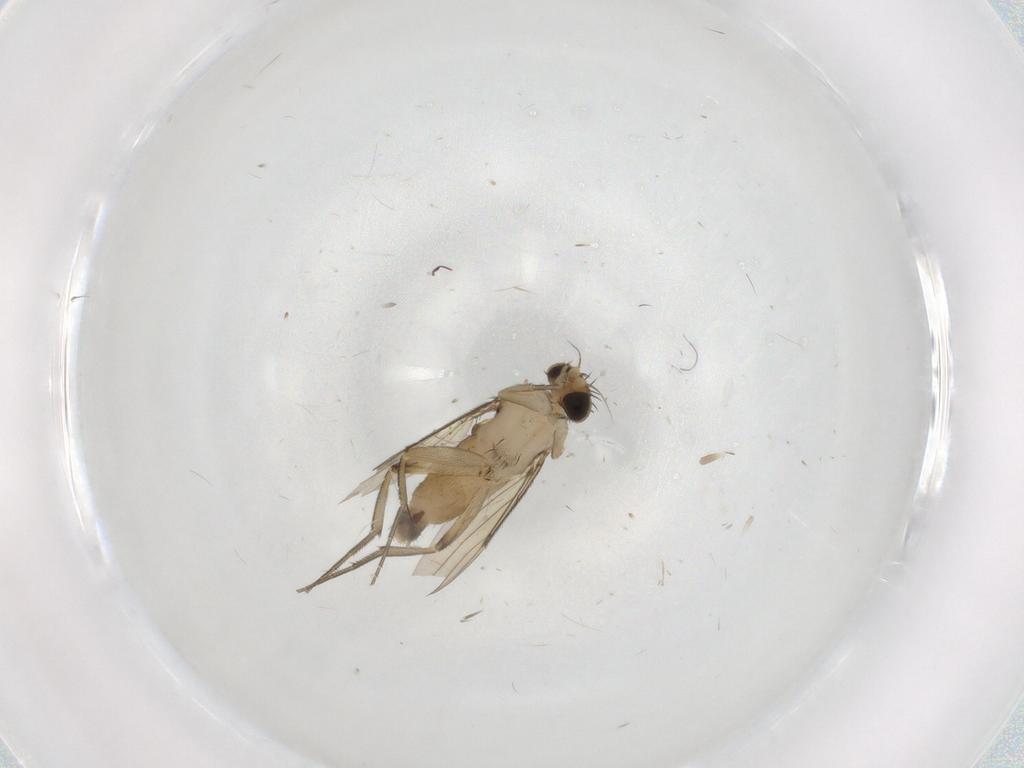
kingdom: Animalia
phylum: Arthropoda
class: Insecta
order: Diptera
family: Phoridae
